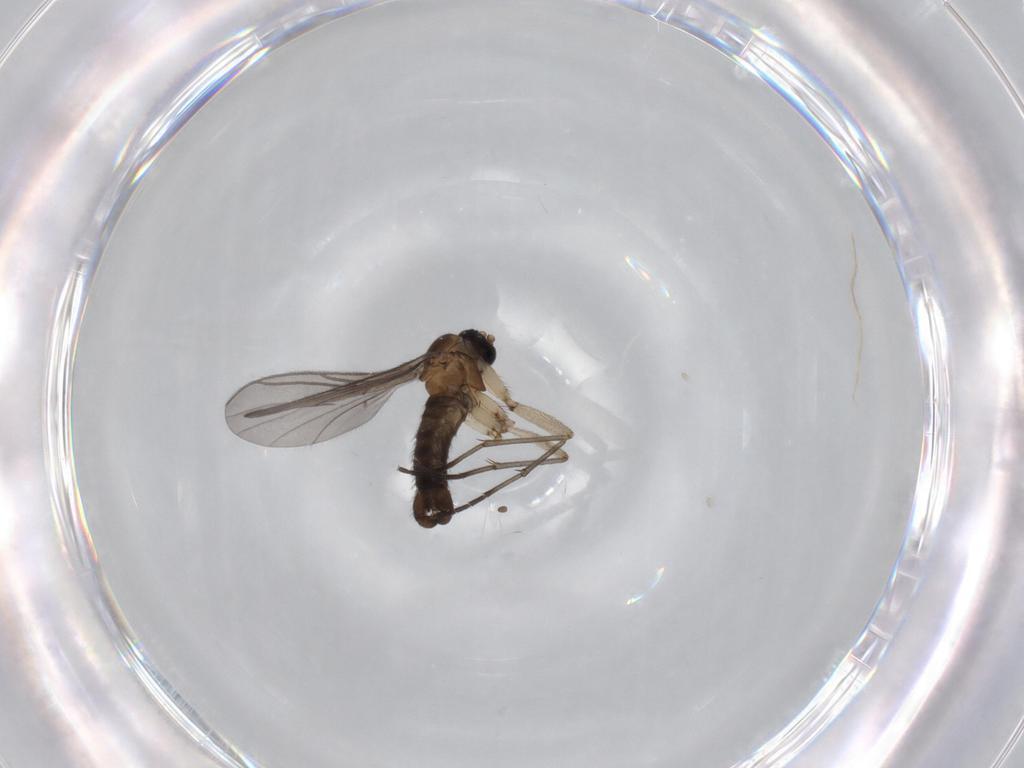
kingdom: Animalia
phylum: Arthropoda
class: Insecta
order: Diptera
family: Sciaridae
